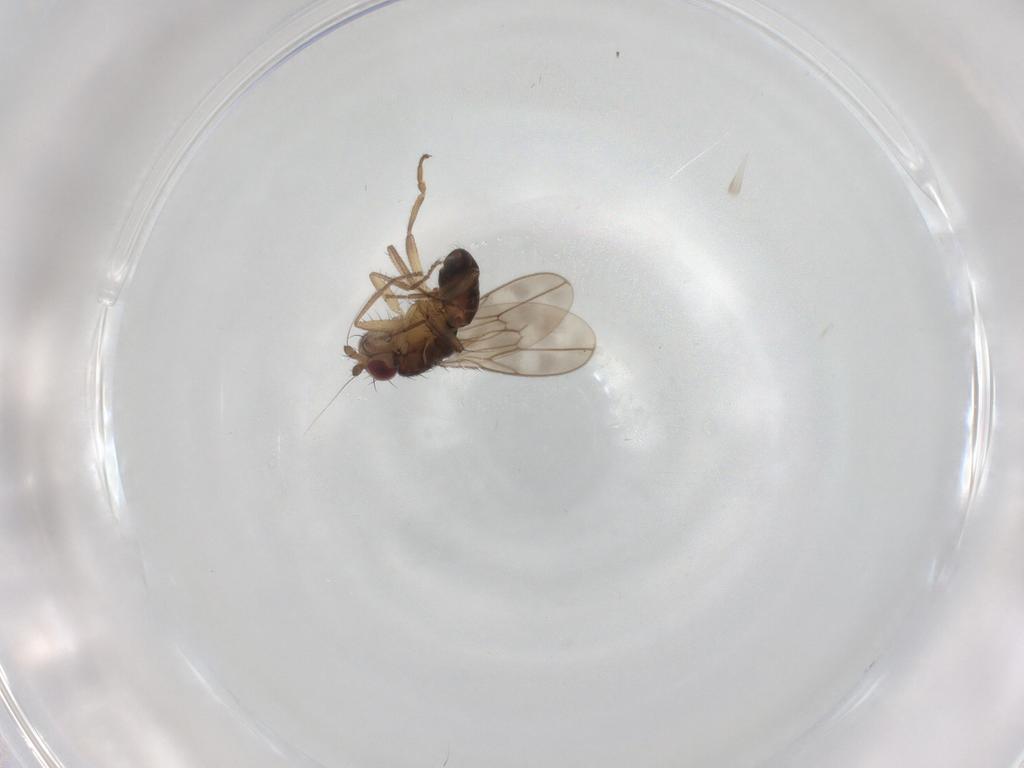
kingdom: Animalia
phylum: Arthropoda
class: Insecta
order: Diptera
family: Sphaeroceridae
